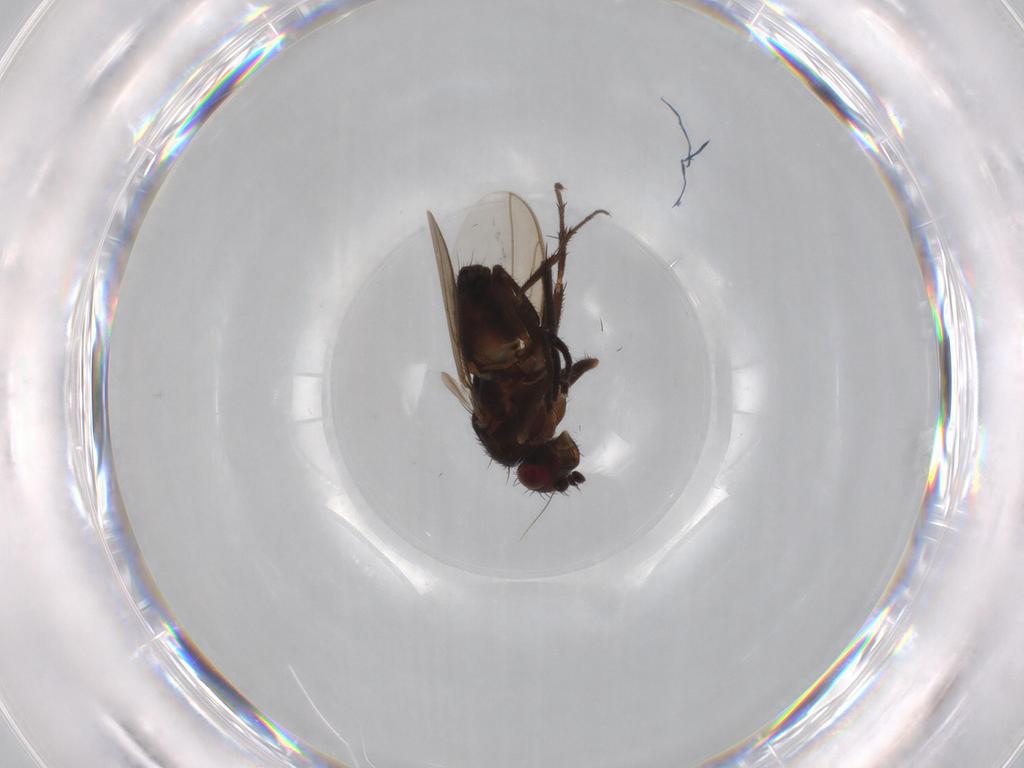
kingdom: Animalia
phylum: Arthropoda
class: Insecta
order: Diptera
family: Sphaeroceridae
